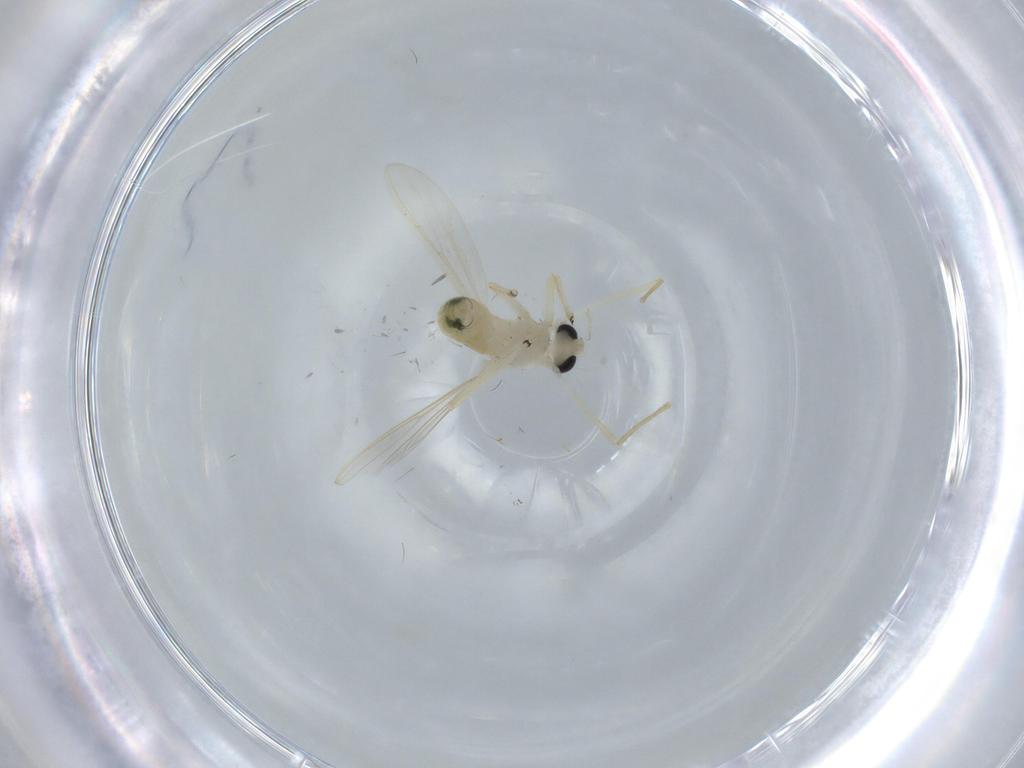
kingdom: Animalia
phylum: Arthropoda
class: Insecta
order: Diptera
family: Chironomidae
